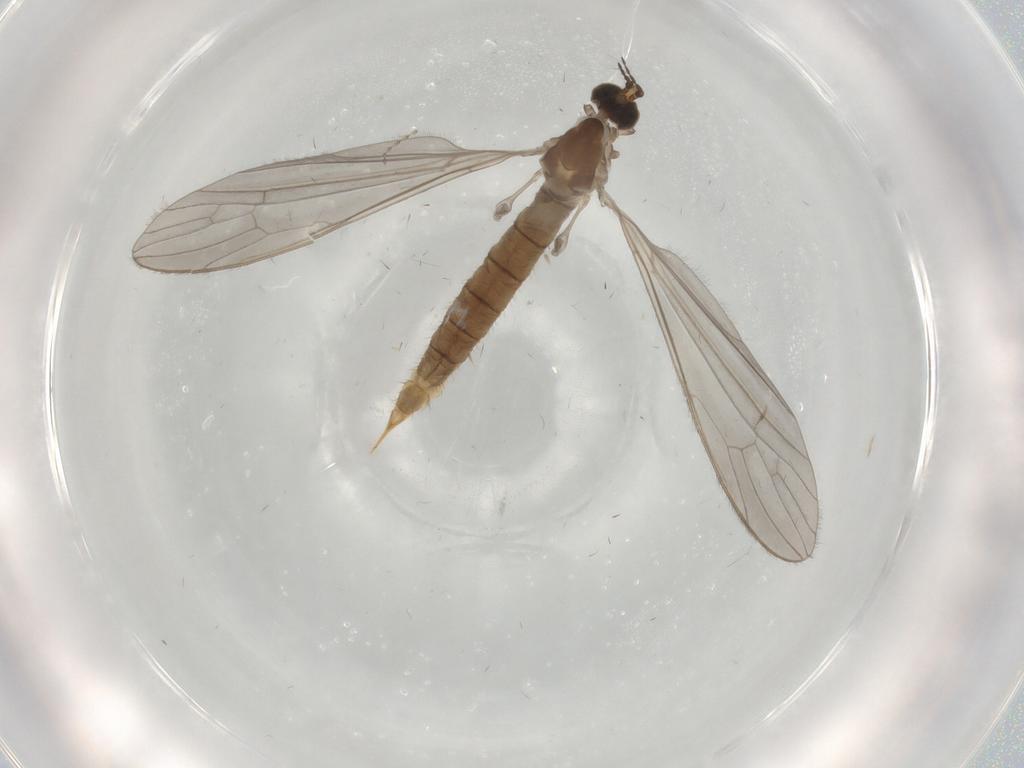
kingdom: Animalia
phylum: Arthropoda
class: Insecta
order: Diptera
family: Limoniidae
